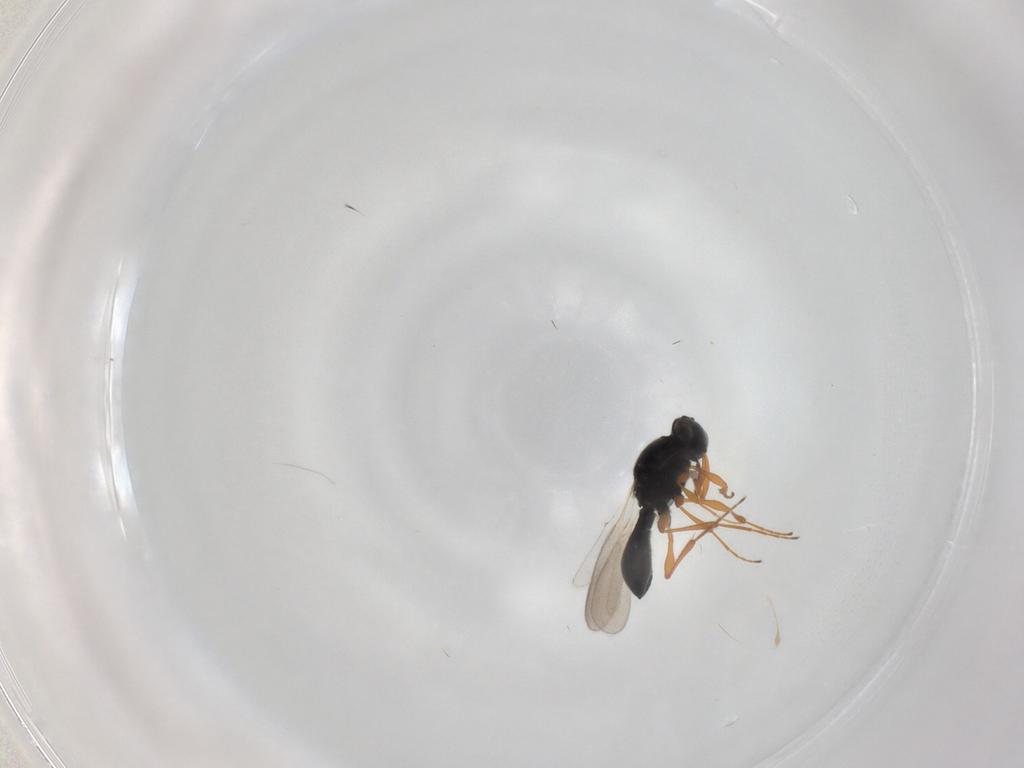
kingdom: Animalia
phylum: Arthropoda
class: Insecta
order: Hymenoptera
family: Platygastridae
